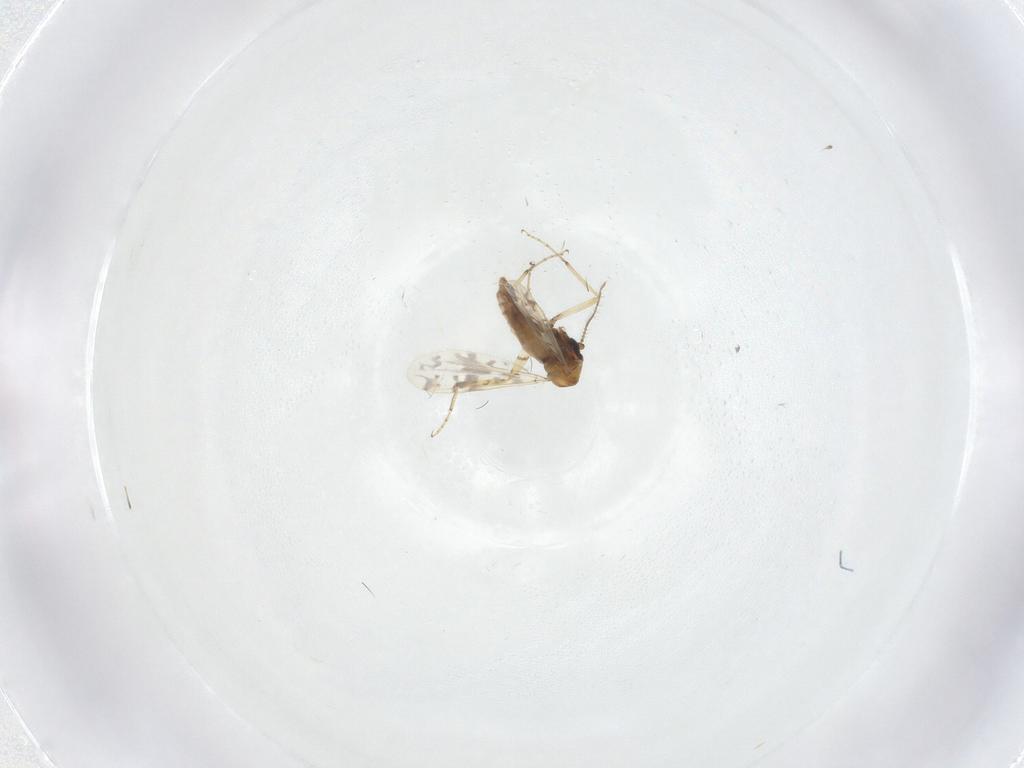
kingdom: Animalia
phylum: Arthropoda
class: Insecta
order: Diptera
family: Ceratopogonidae
